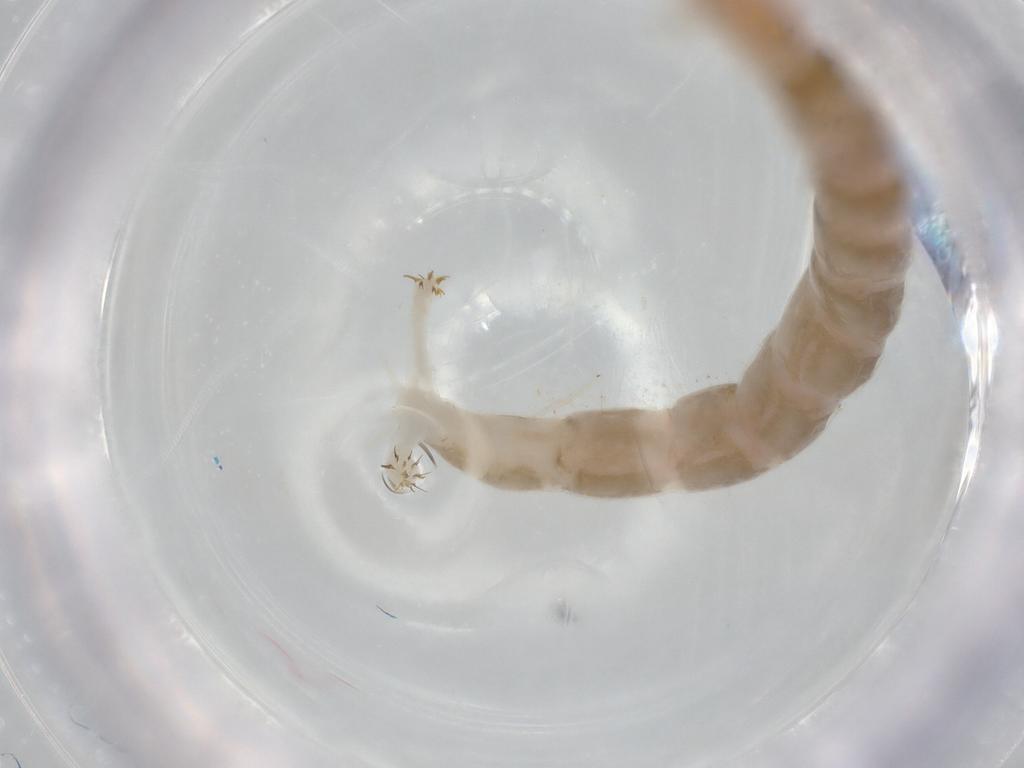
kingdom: Animalia
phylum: Arthropoda
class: Insecta
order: Diptera
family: Chironomidae
